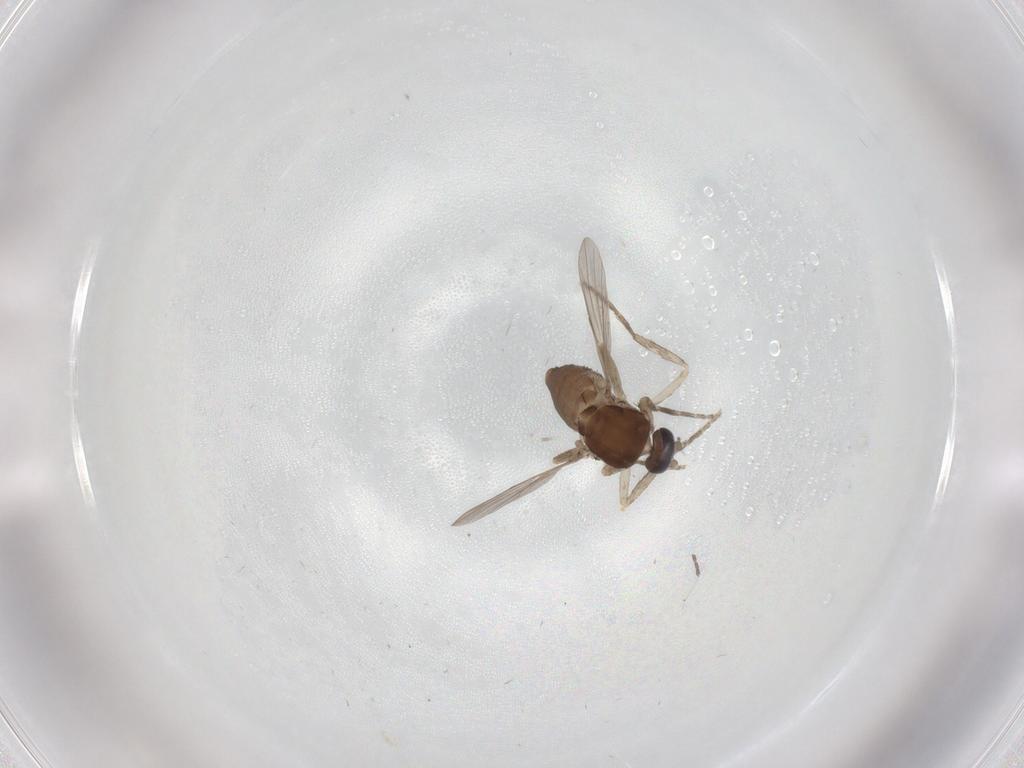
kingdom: Animalia
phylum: Arthropoda
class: Insecta
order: Diptera
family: Ceratopogonidae
